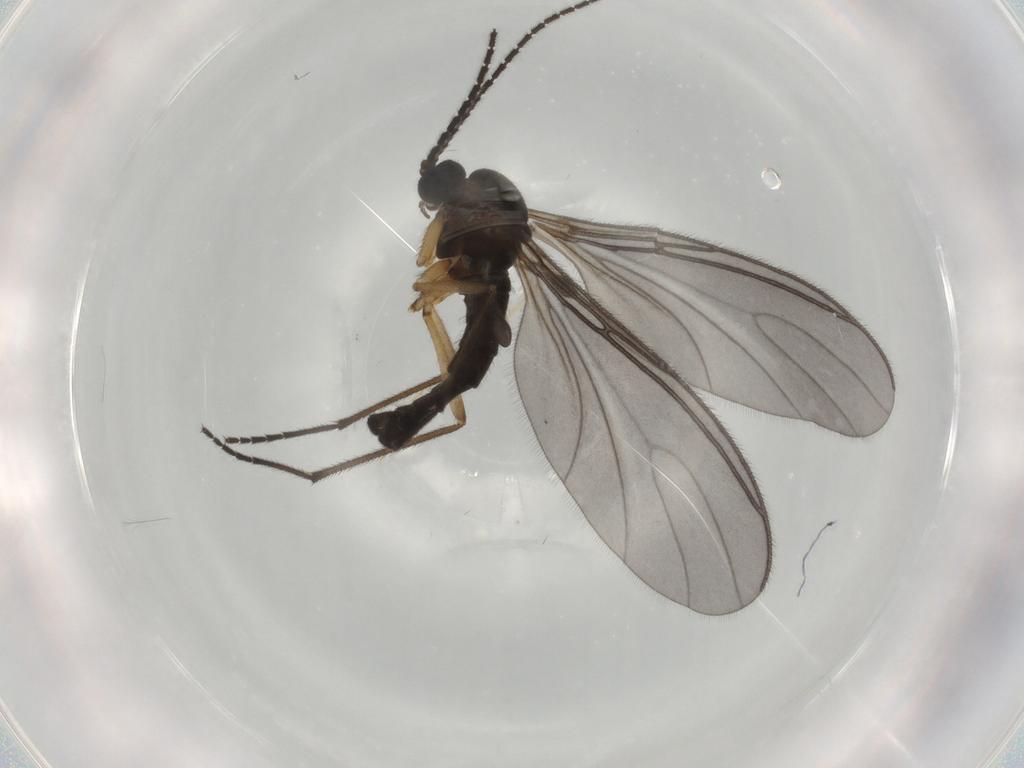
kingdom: Animalia
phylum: Arthropoda
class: Insecta
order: Diptera
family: Sciaridae
